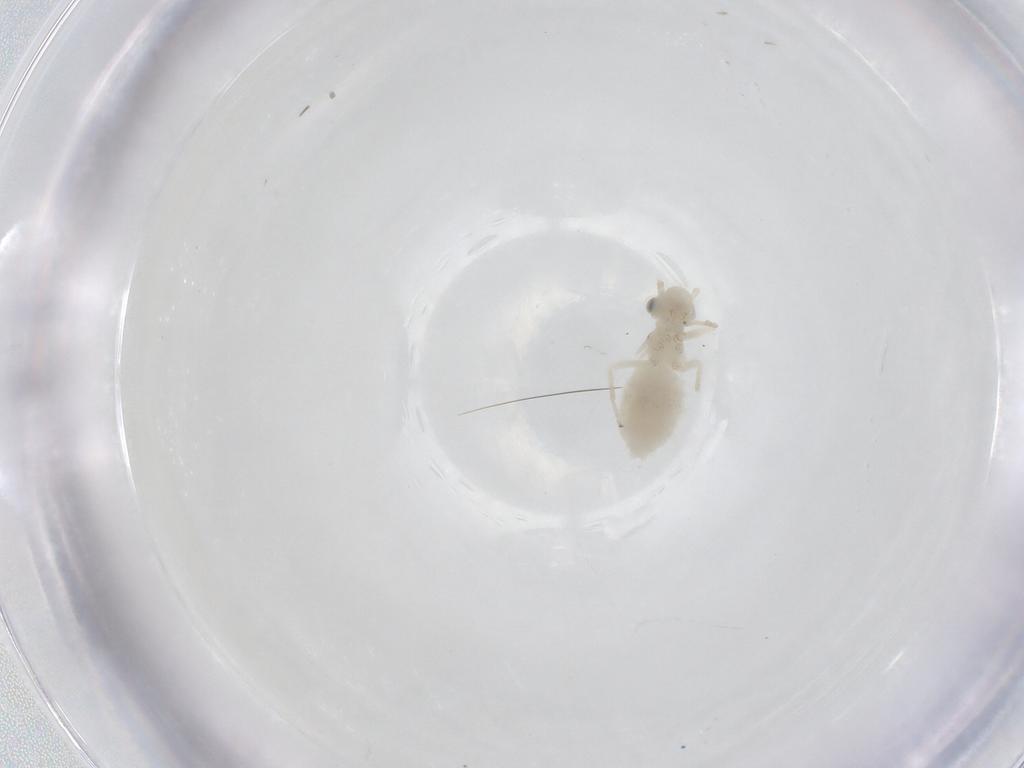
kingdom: Animalia
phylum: Arthropoda
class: Insecta
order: Psocodea
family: Caeciliusidae
